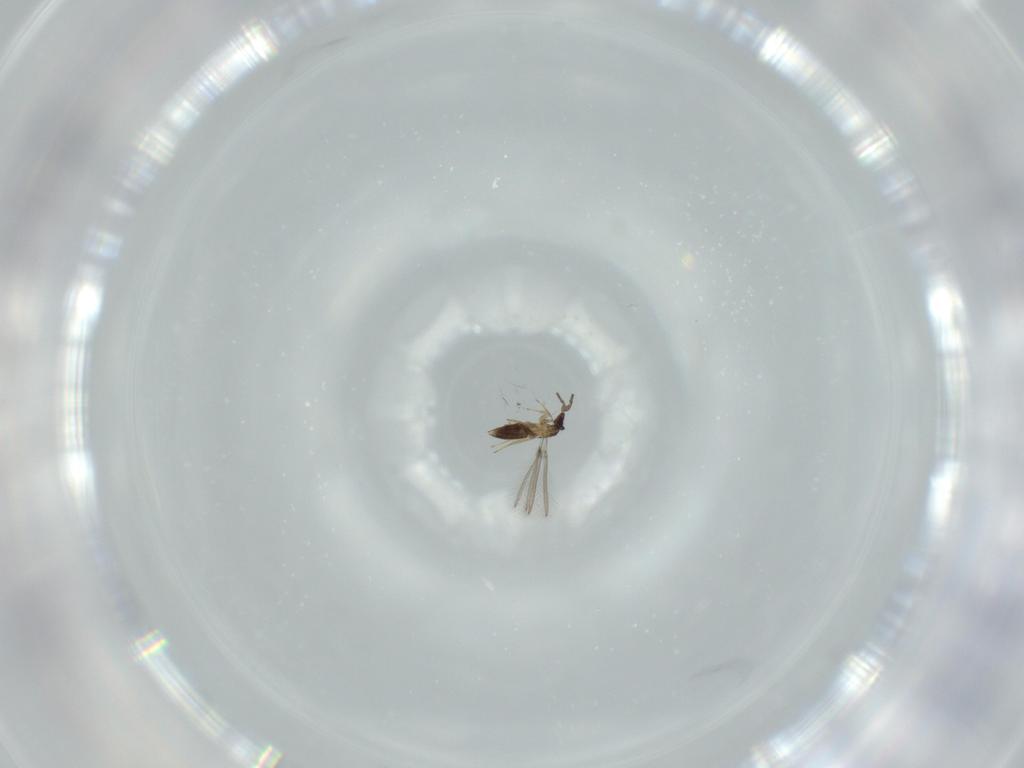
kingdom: Animalia
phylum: Arthropoda
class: Insecta
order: Hymenoptera
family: Mymaridae
